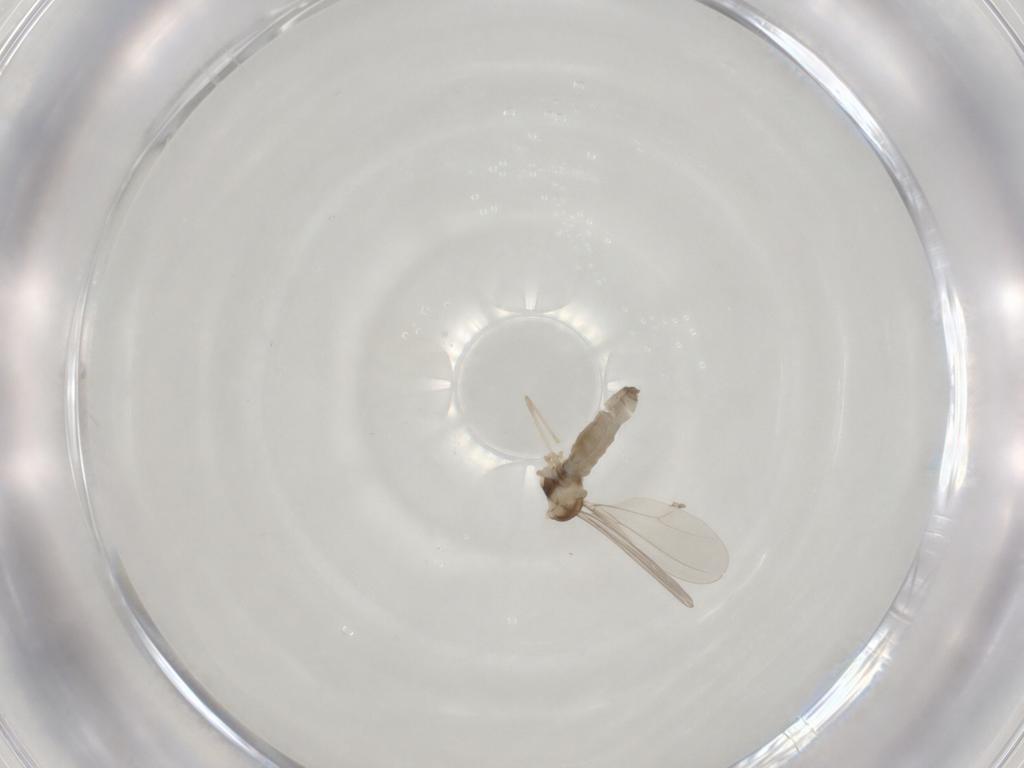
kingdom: Animalia
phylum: Arthropoda
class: Insecta
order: Diptera
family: Cecidomyiidae
